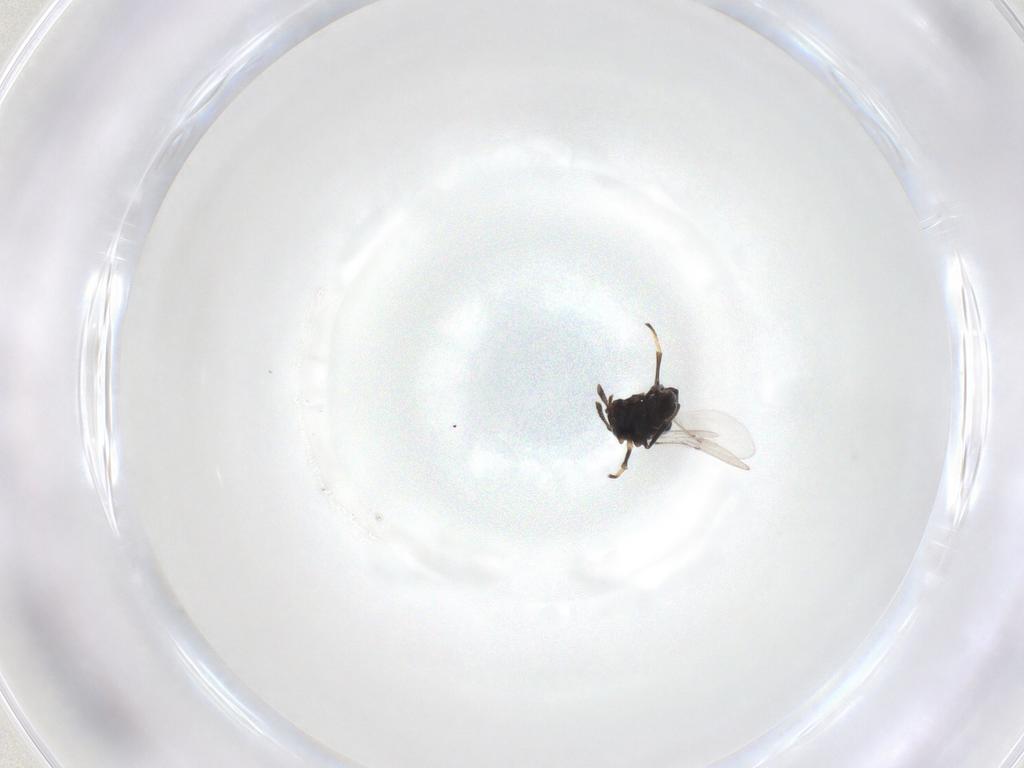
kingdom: Animalia
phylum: Arthropoda
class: Insecta
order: Hymenoptera
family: Encyrtidae
